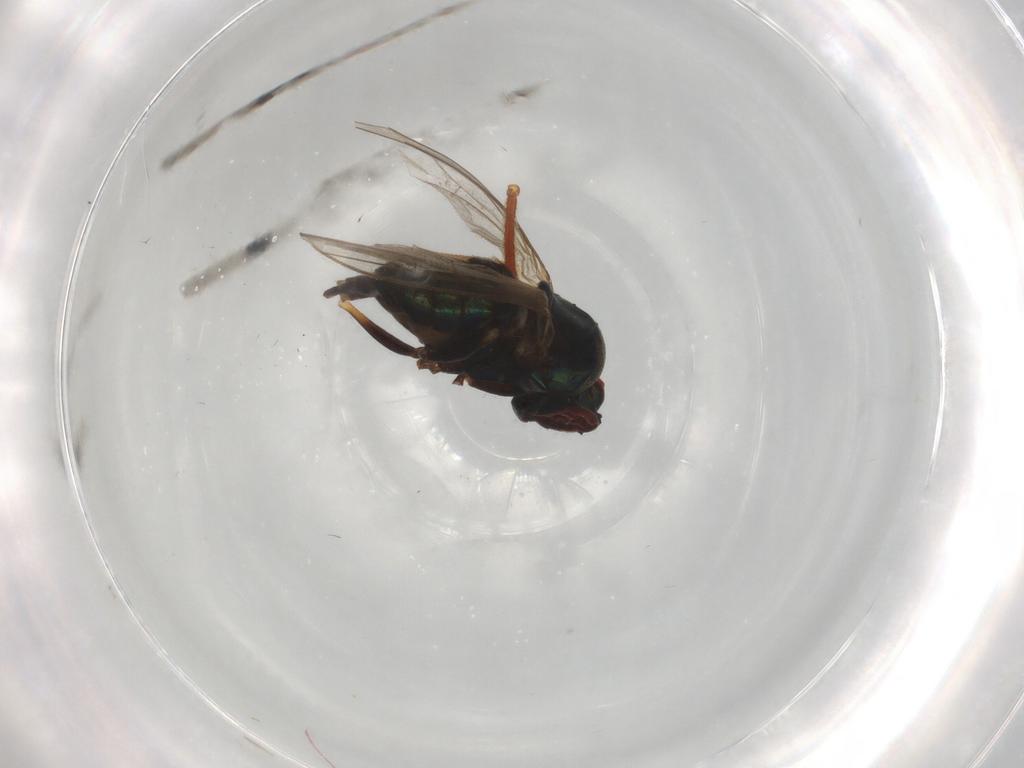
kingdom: Animalia
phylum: Arthropoda
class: Insecta
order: Diptera
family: Dolichopodidae
